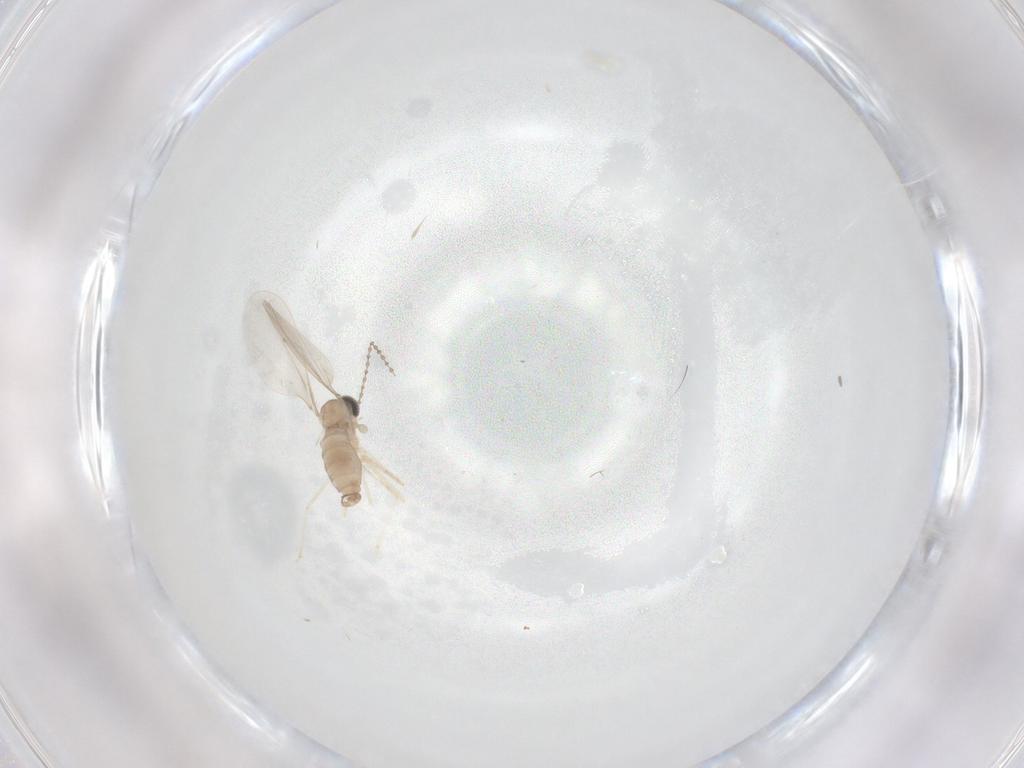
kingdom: Animalia
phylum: Arthropoda
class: Insecta
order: Diptera
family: Cecidomyiidae
